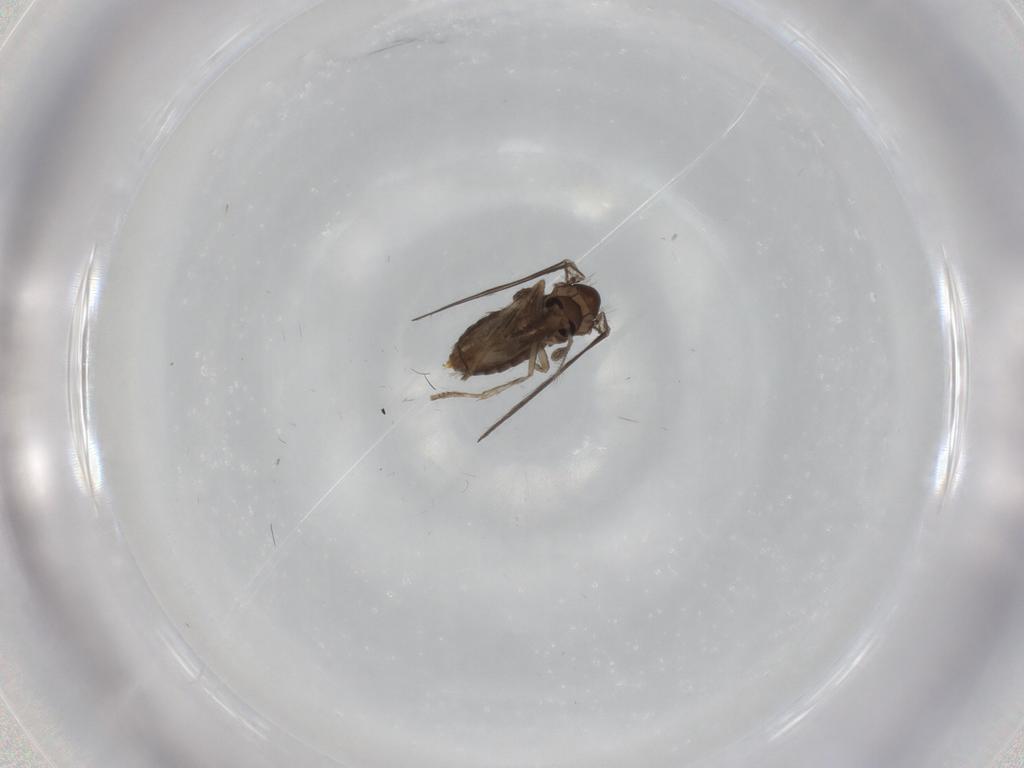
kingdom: Animalia
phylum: Arthropoda
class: Insecta
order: Diptera
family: Psychodidae
